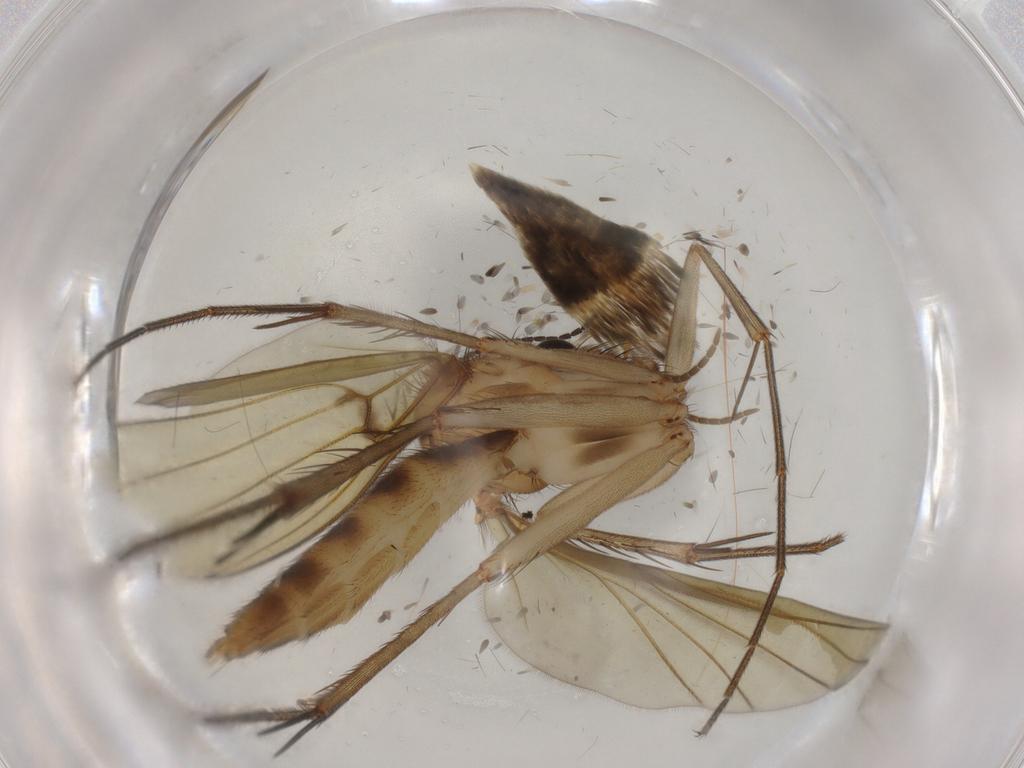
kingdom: Animalia
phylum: Arthropoda
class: Insecta
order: Diptera
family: Mycetophilidae
